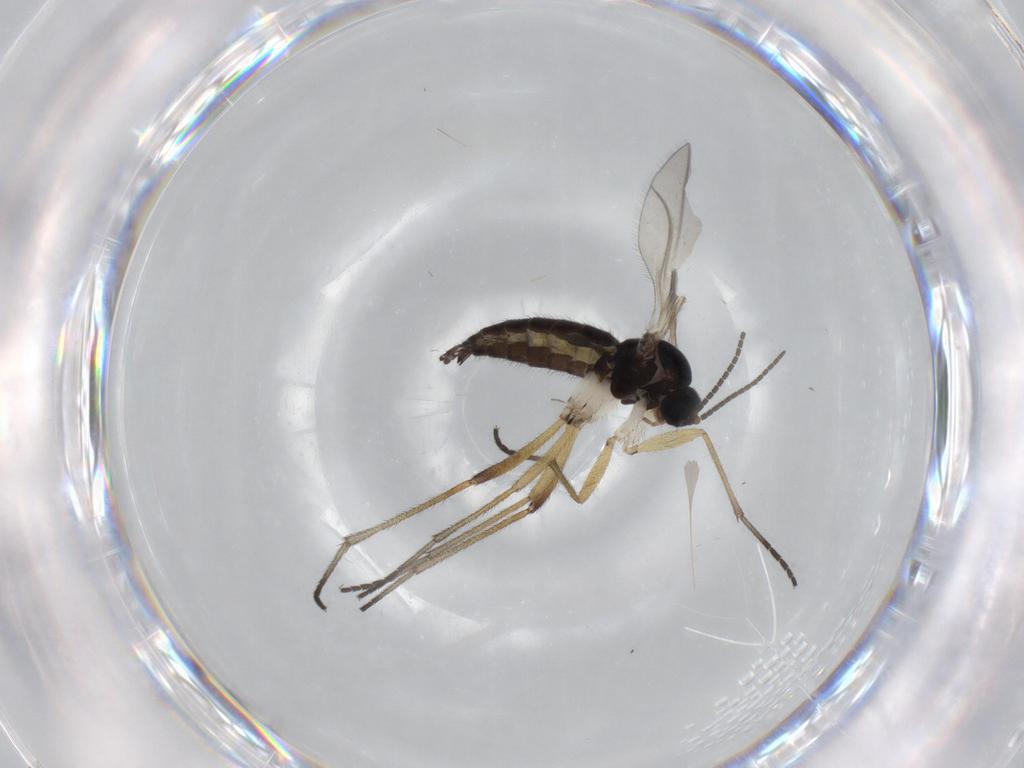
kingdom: Animalia
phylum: Arthropoda
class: Insecta
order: Diptera
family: Sciaridae
